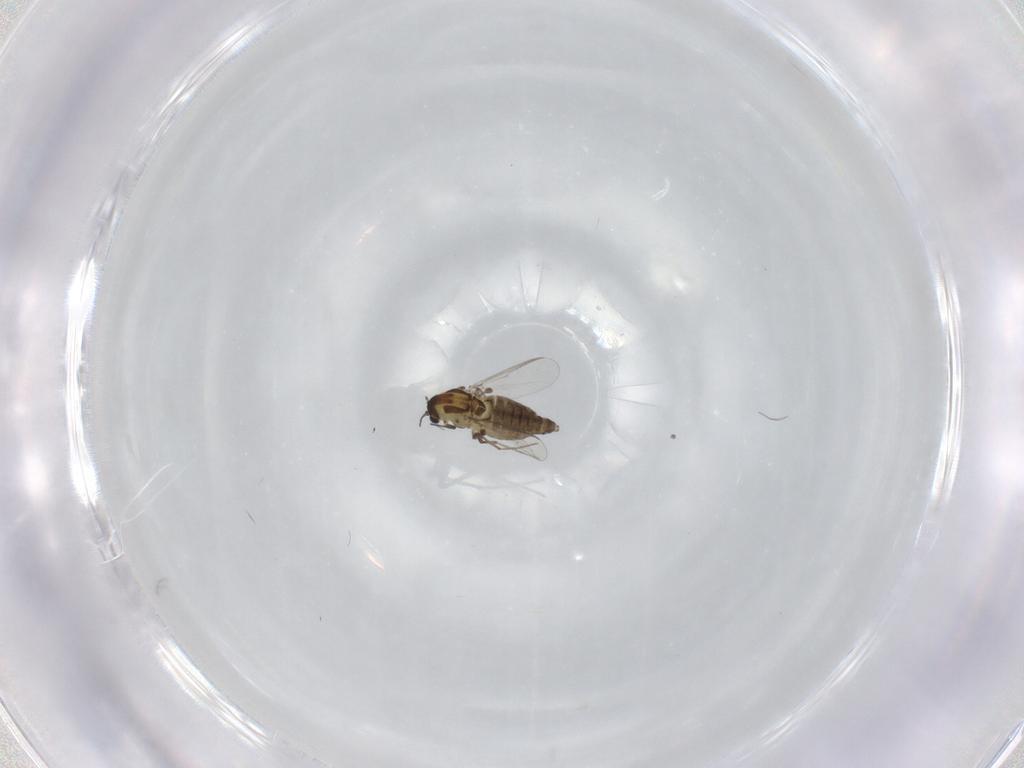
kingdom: Animalia
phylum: Arthropoda
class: Insecta
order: Diptera
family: Chironomidae
